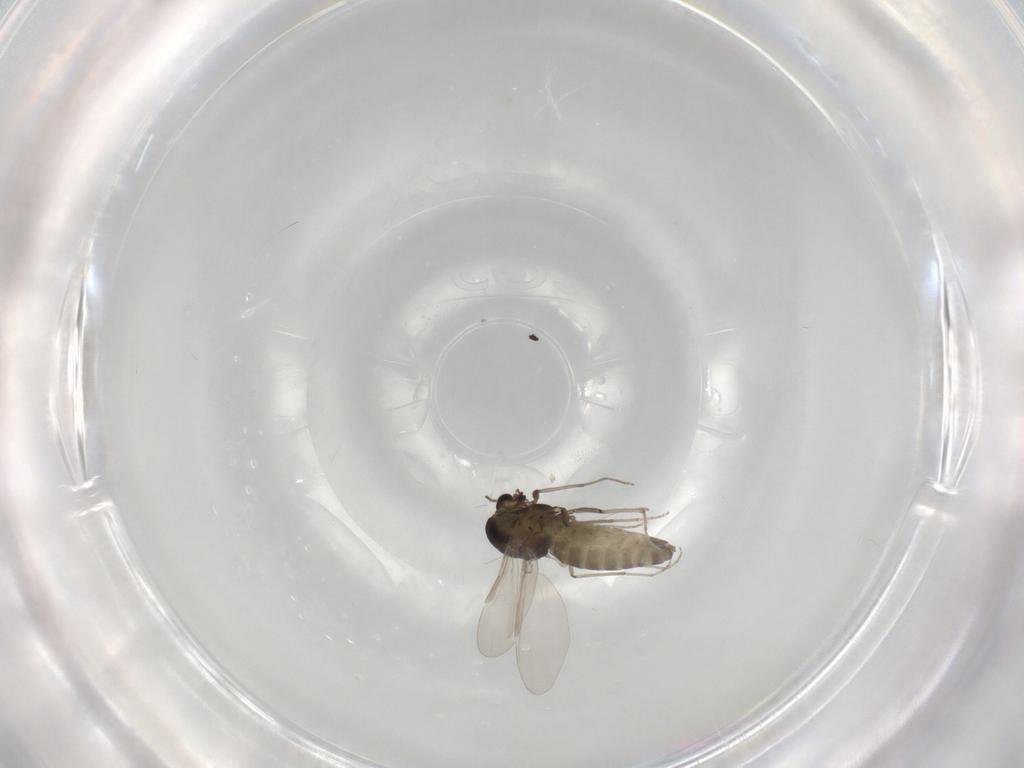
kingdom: Animalia
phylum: Arthropoda
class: Insecta
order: Diptera
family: Chironomidae
